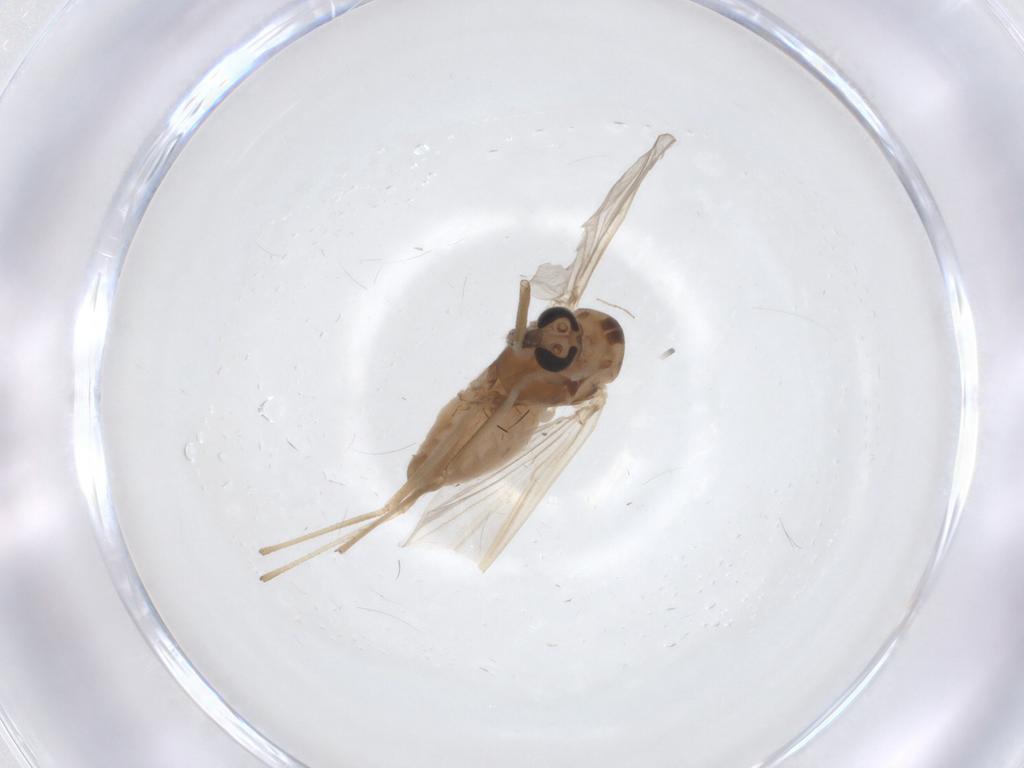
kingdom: Animalia
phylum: Arthropoda
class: Insecta
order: Diptera
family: Chironomidae
